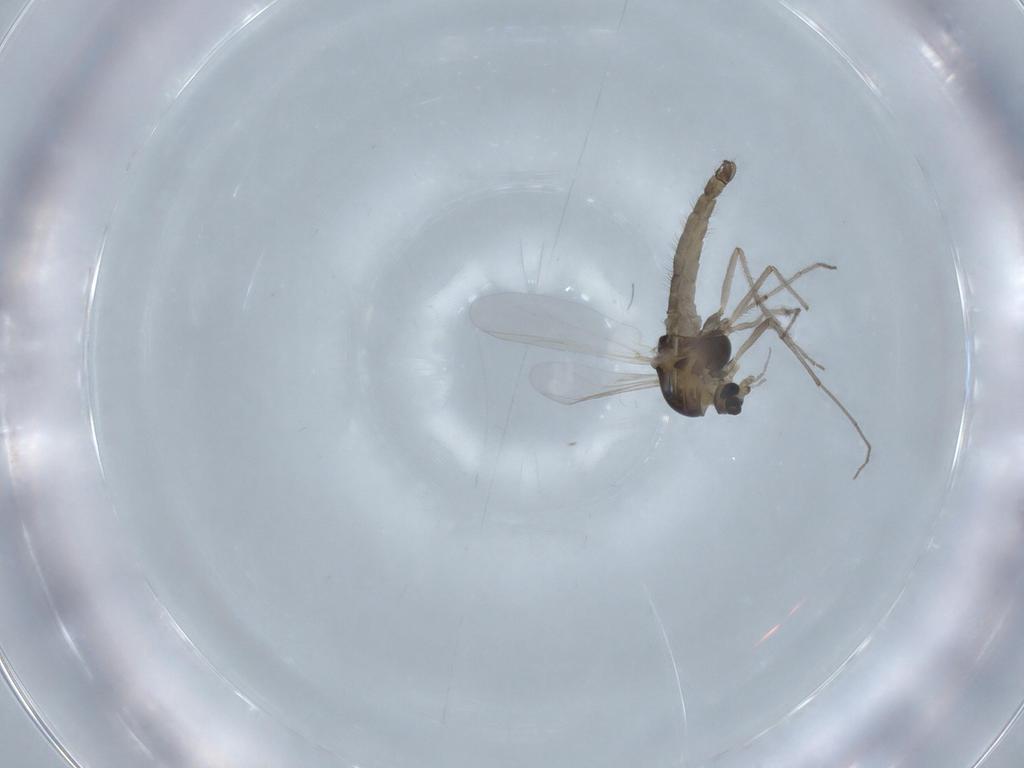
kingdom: Animalia
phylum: Arthropoda
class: Insecta
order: Diptera
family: Chironomidae
